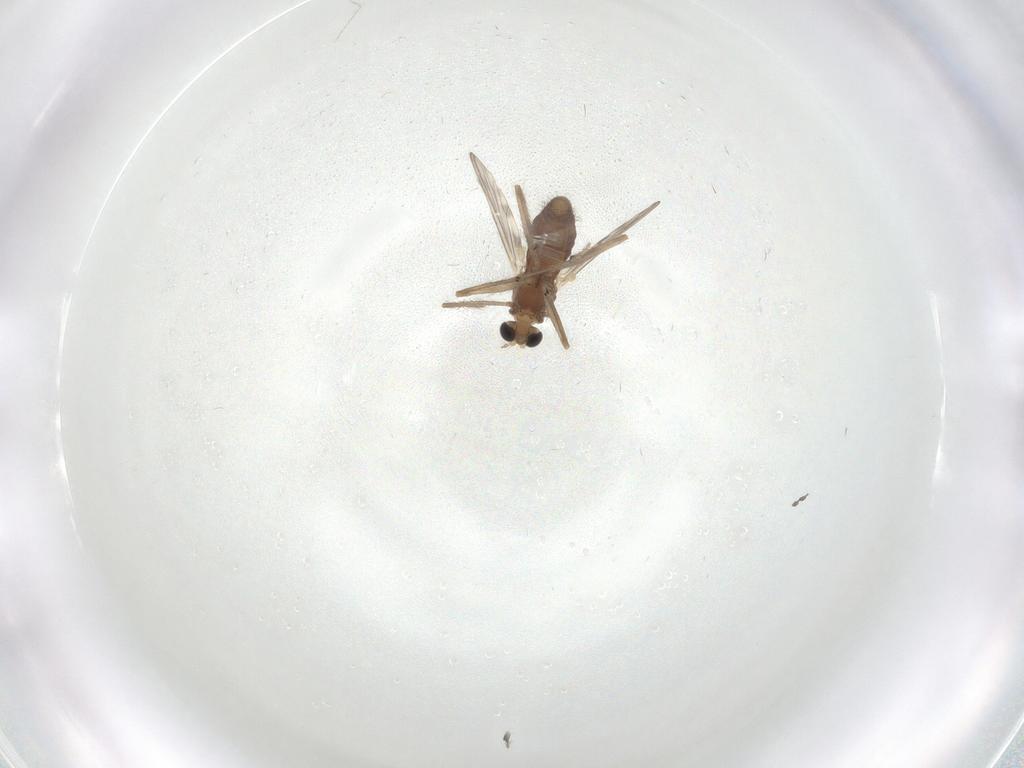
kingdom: Animalia
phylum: Arthropoda
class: Insecta
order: Diptera
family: Chironomidae
